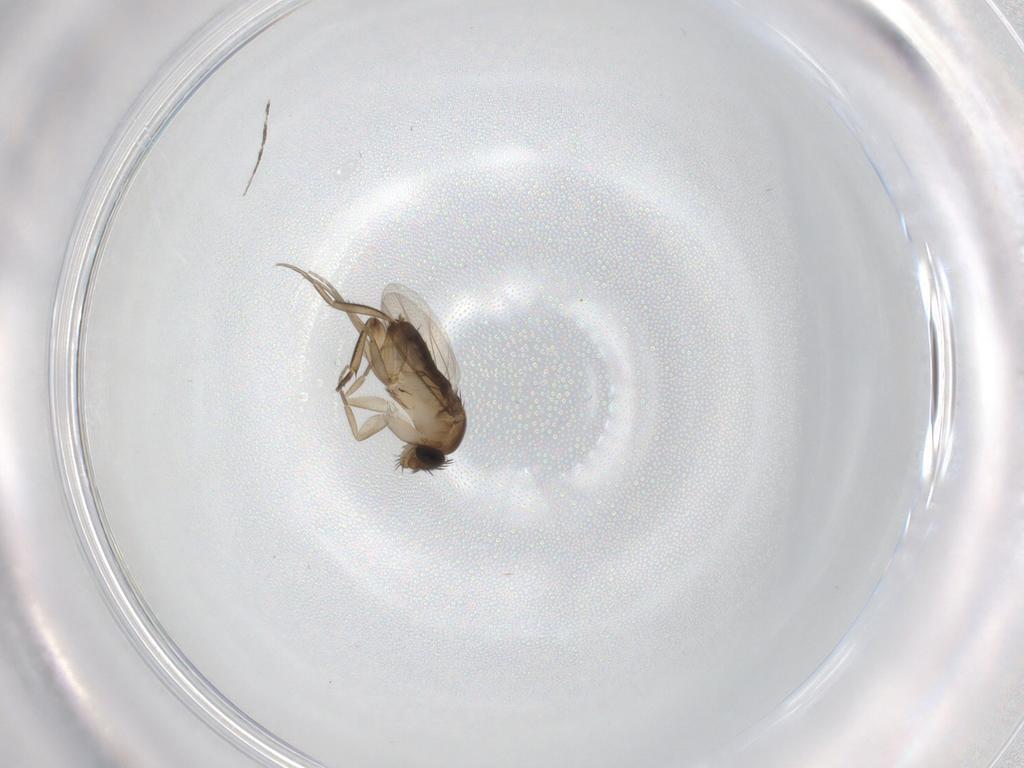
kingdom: Animalia
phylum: Arthropoda
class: Insecta
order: Diptera
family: Phoridae
